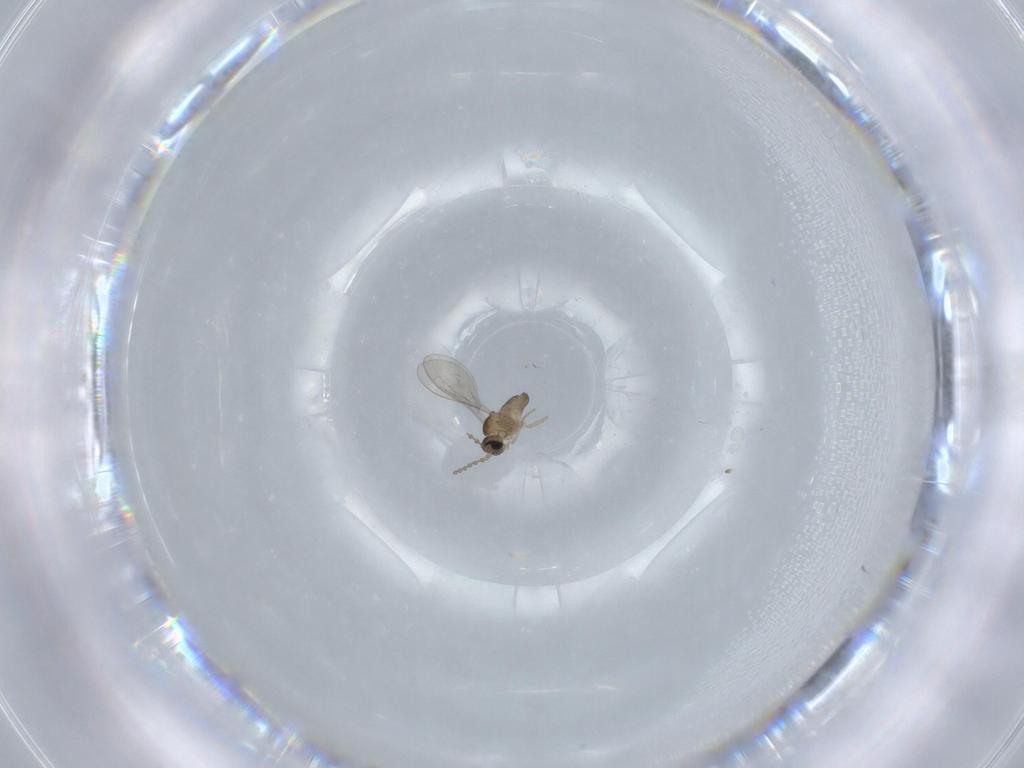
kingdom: Animalia
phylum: Arthropoda
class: Insecta
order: Diptera
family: Cecidomyiidae
